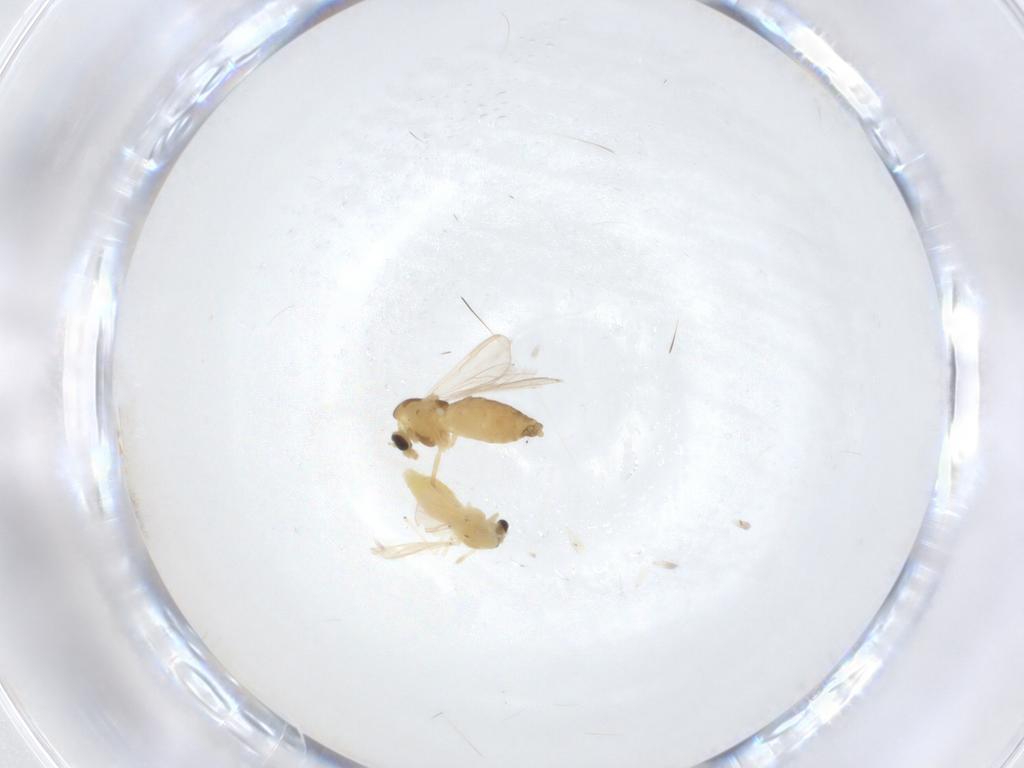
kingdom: Animalia
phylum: Arthropoda
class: Insecta
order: Diptera
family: Chironomidae
